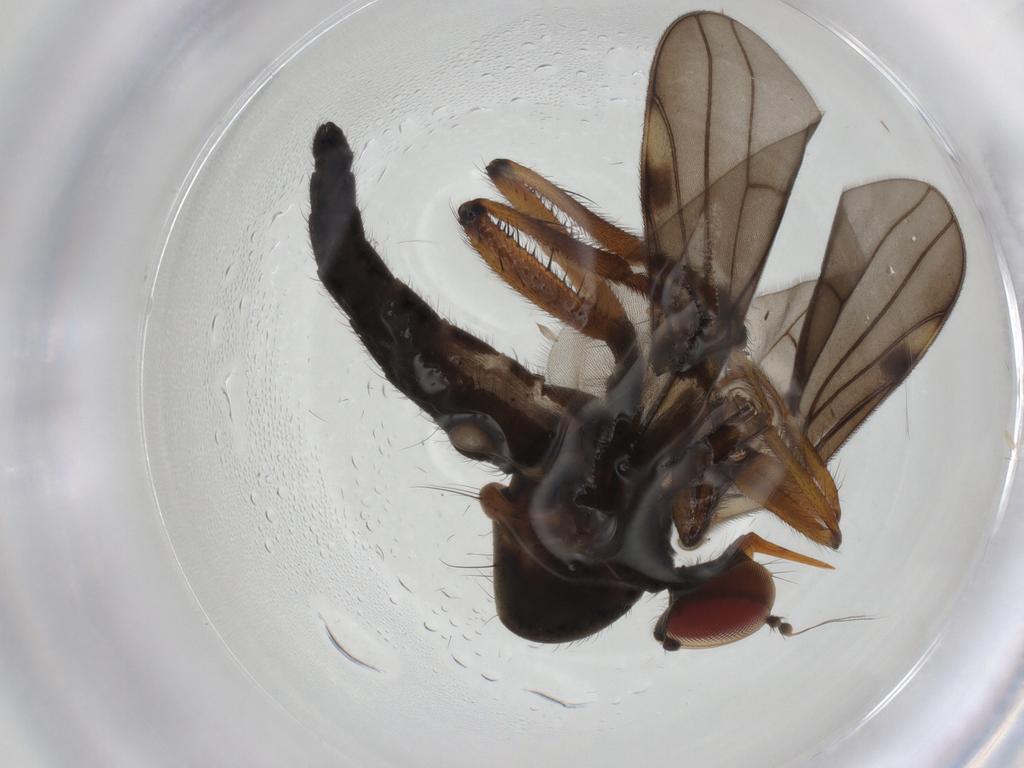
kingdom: Animalia
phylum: Arthropoda
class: Insecta
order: Diptera
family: Hybotidae
